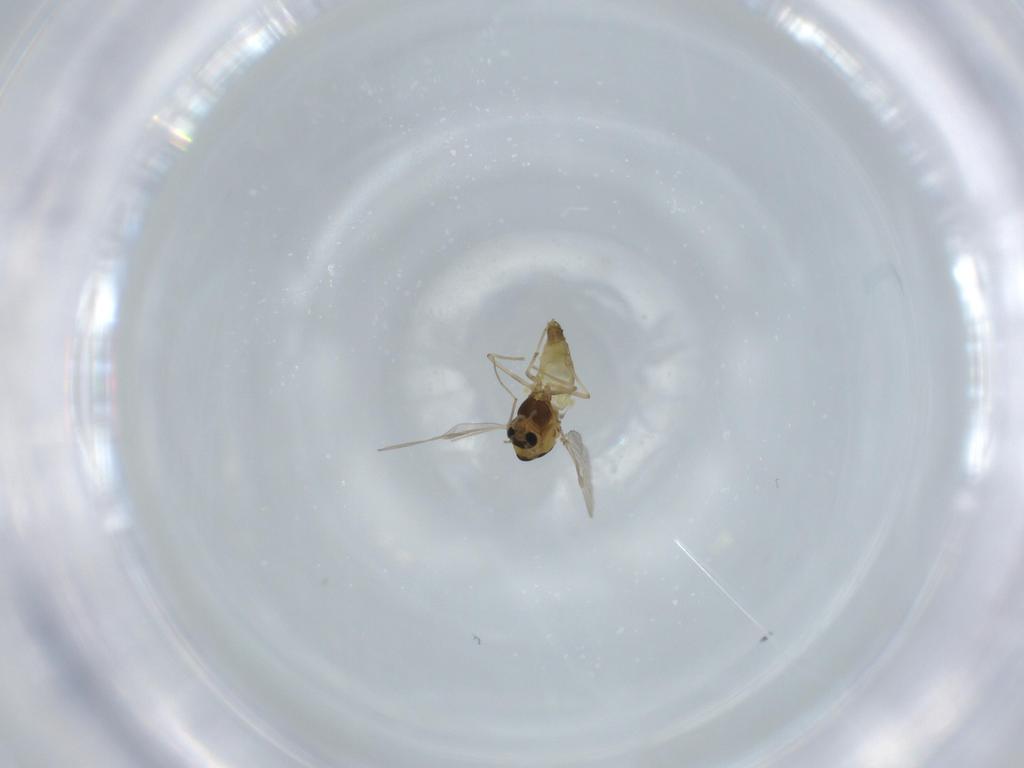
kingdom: Animalia
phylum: Arthropoda
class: Insecta
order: Diptera
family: Chironomidae
